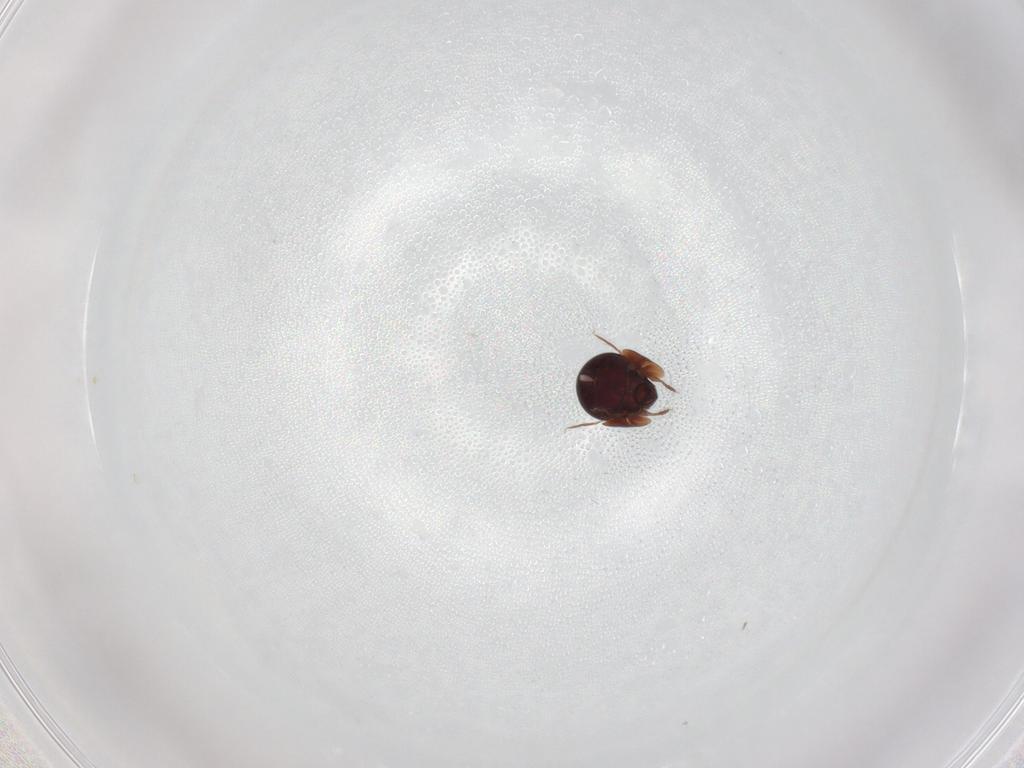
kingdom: Animalia
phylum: Arthropoda
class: Arachnida
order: Sarcoptiformes
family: Galumnidae
